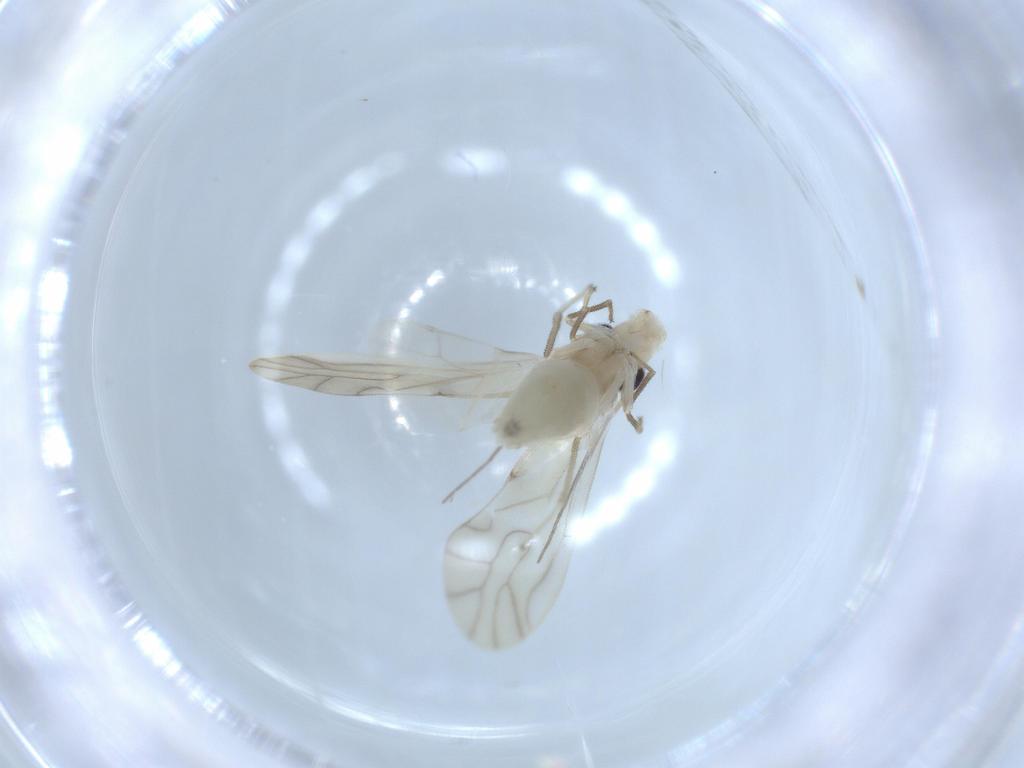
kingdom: Animalia
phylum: Arthropoda
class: Insecta
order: Psocodea
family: Caeciliusidae
